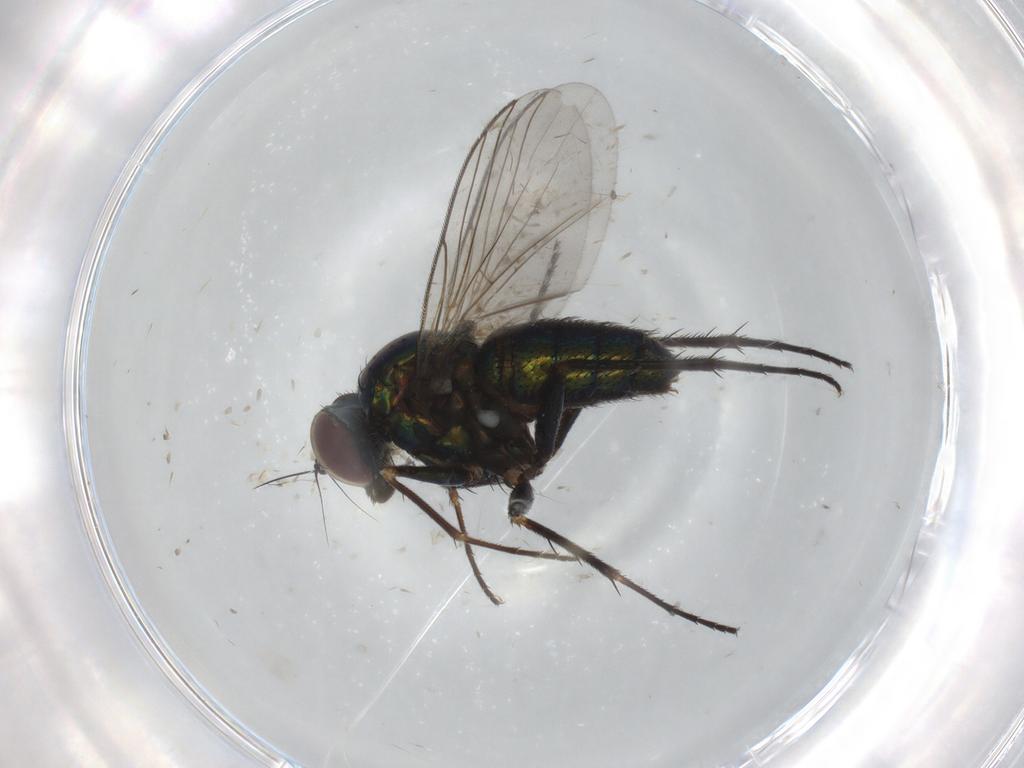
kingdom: Animalia
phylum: Arthropoda
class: Insecta
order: Diptera
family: Dolichopodidae
